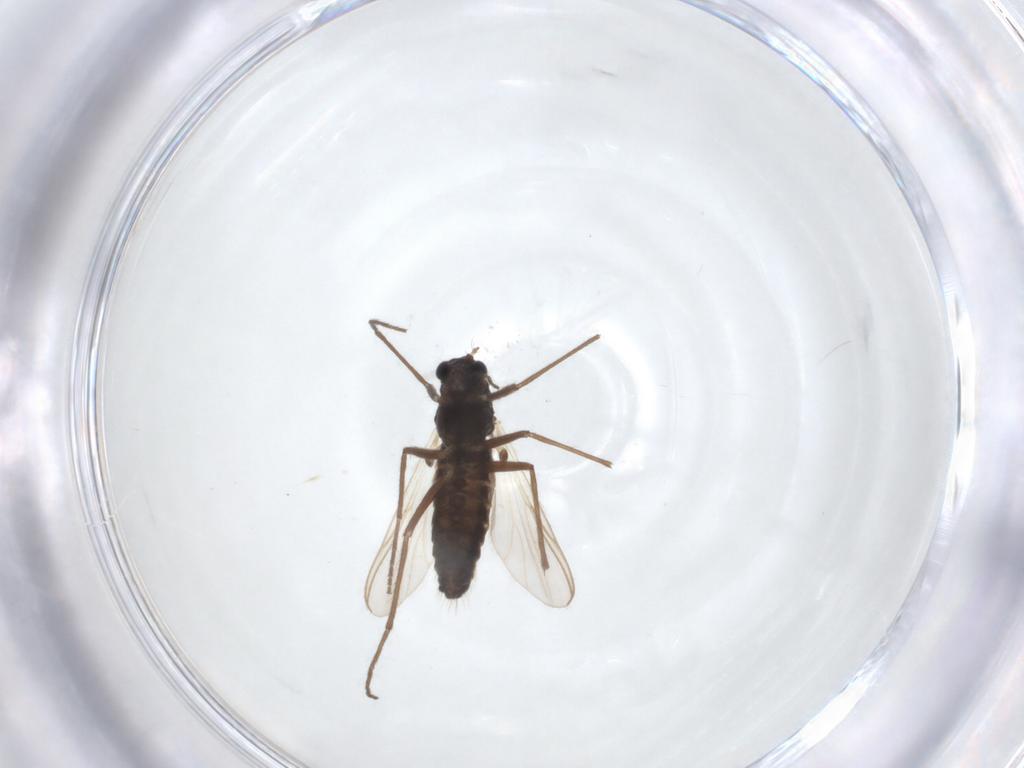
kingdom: Animalia
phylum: Arthropoda
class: Insecta
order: Diptera
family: Chironomidae
